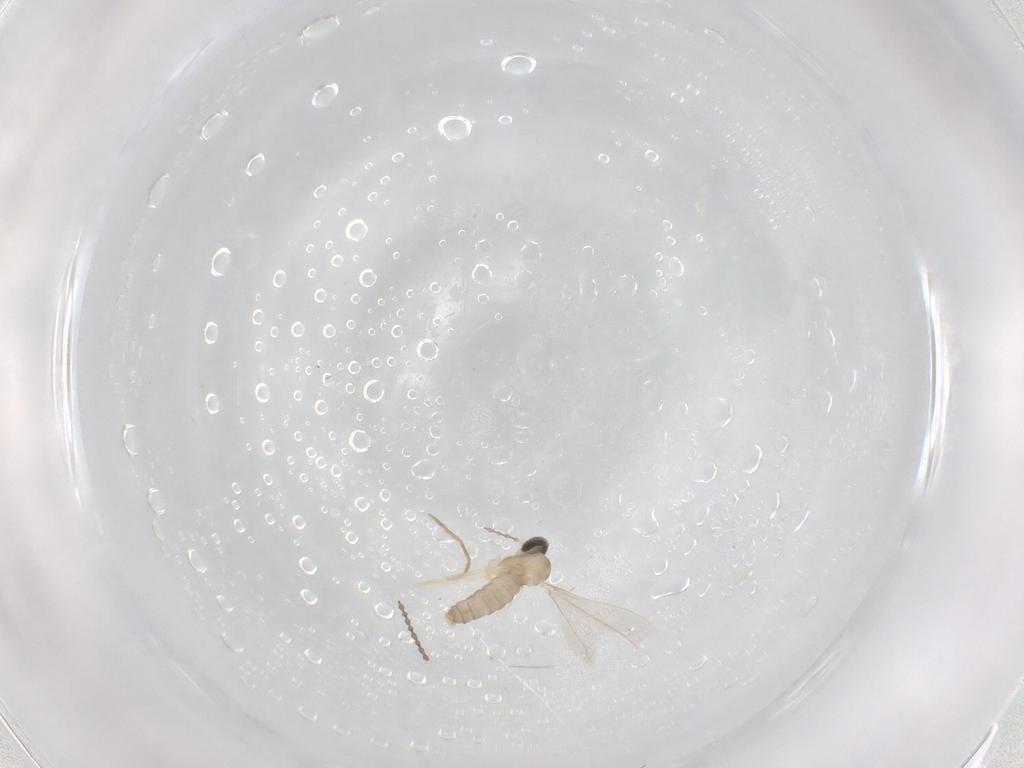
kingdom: Animalia
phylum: Arthropoda
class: Insecta
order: Diptera
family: Cecidomyiidae
